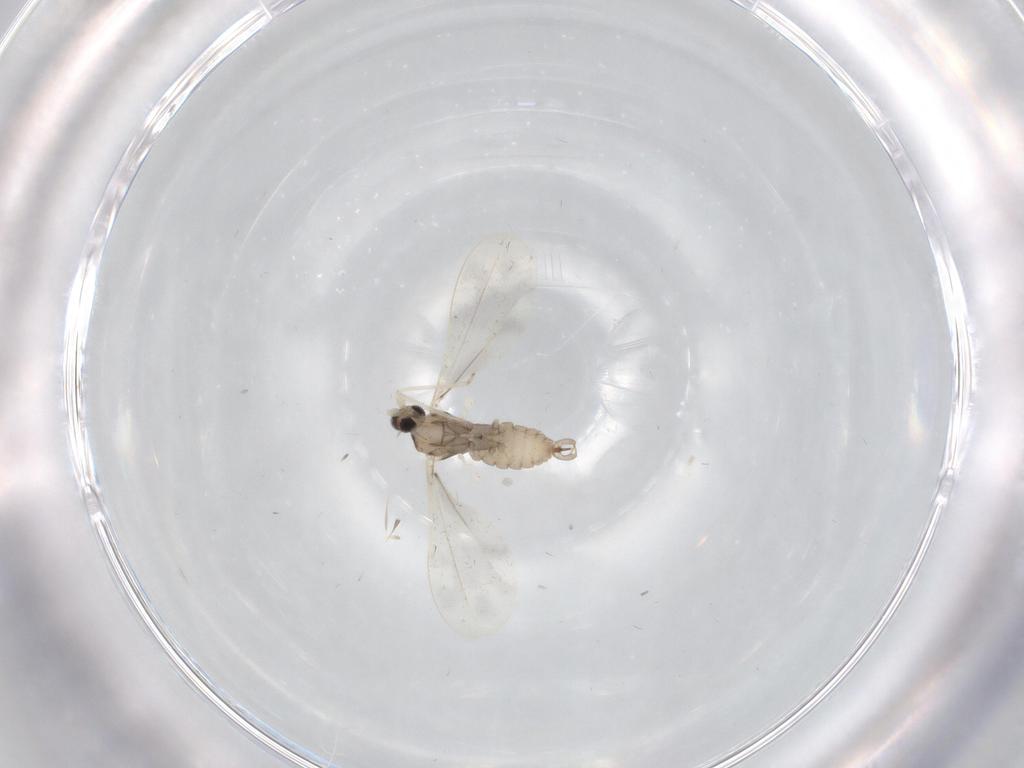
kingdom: Animalia
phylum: Arthropoda
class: Insecta
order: Diptera
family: Cecidomyiidae
